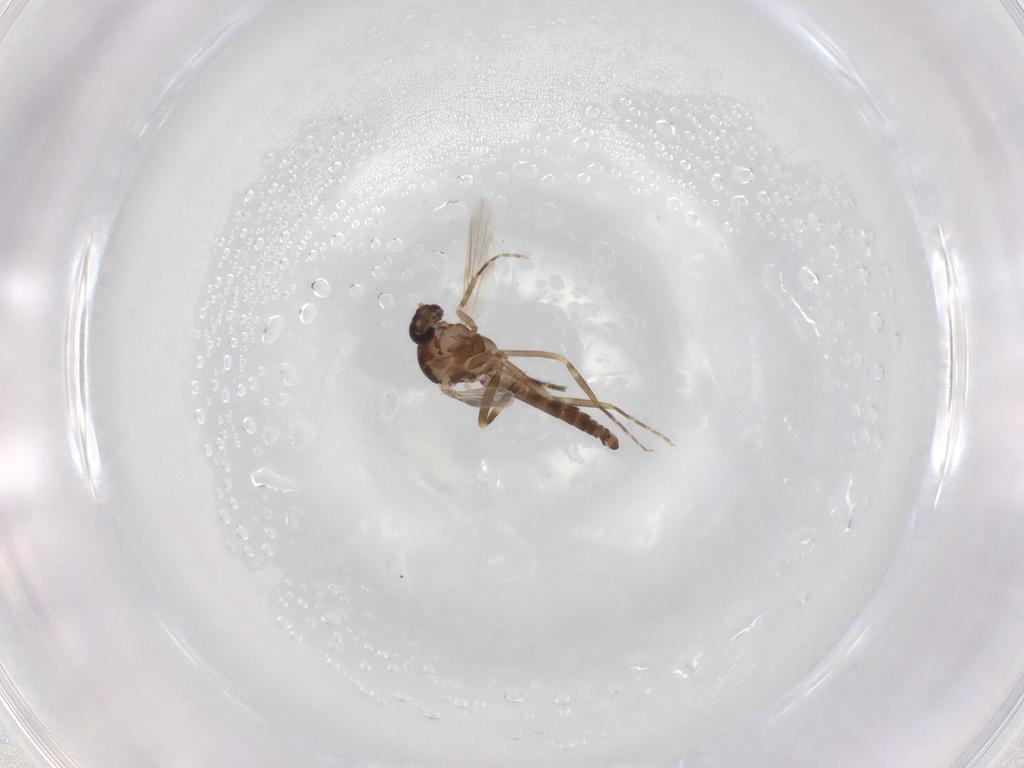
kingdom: Animalia
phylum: Arthropoda
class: Insecta
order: Diptera
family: Ceratopogonidae
